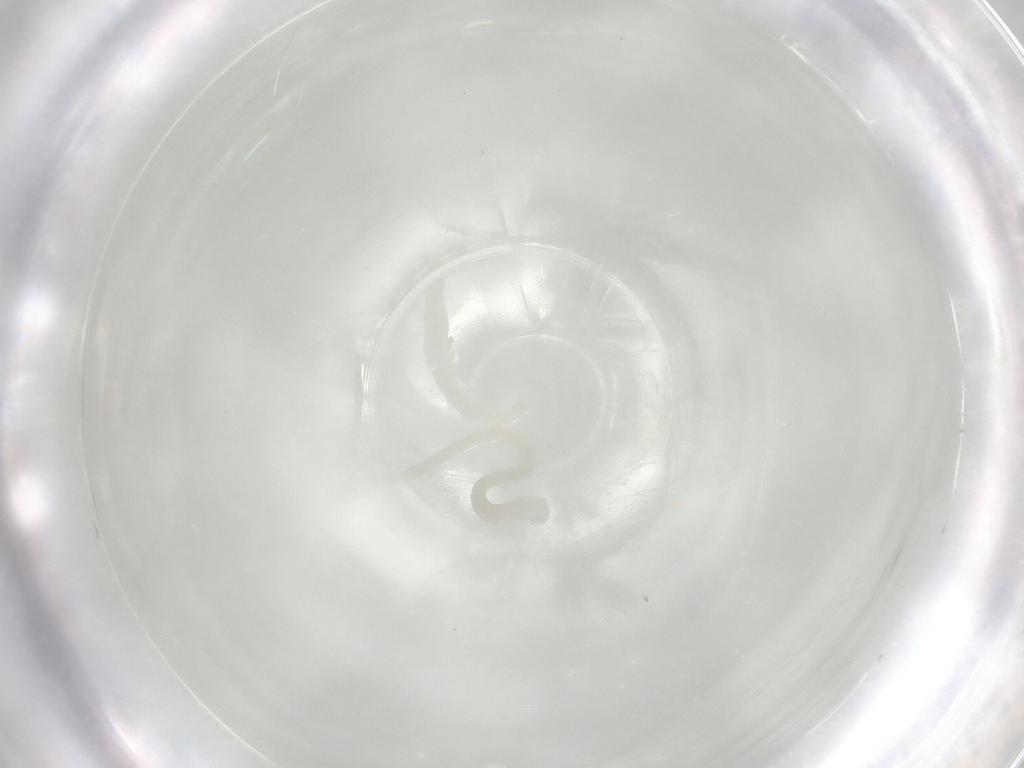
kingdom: Animalia
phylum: Arthropoda
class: Insecta
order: Diptera
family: Chironomidae
